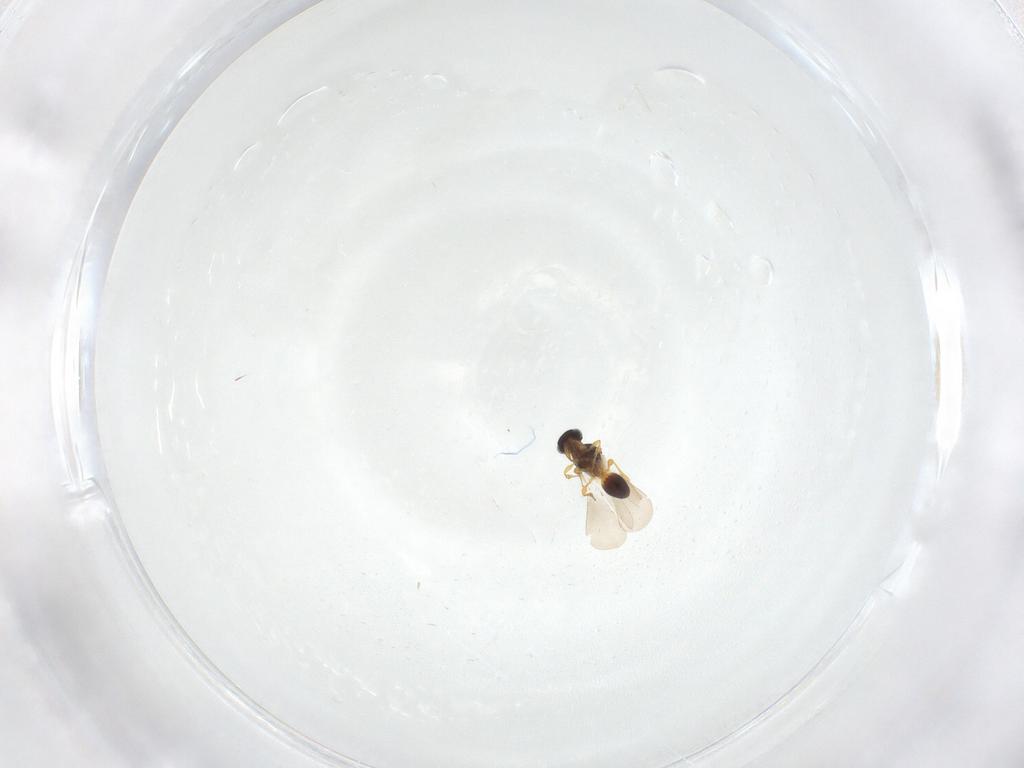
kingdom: Animalia
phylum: Arthropoda
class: Insecta
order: Diptera
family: Cecidomyiidae
